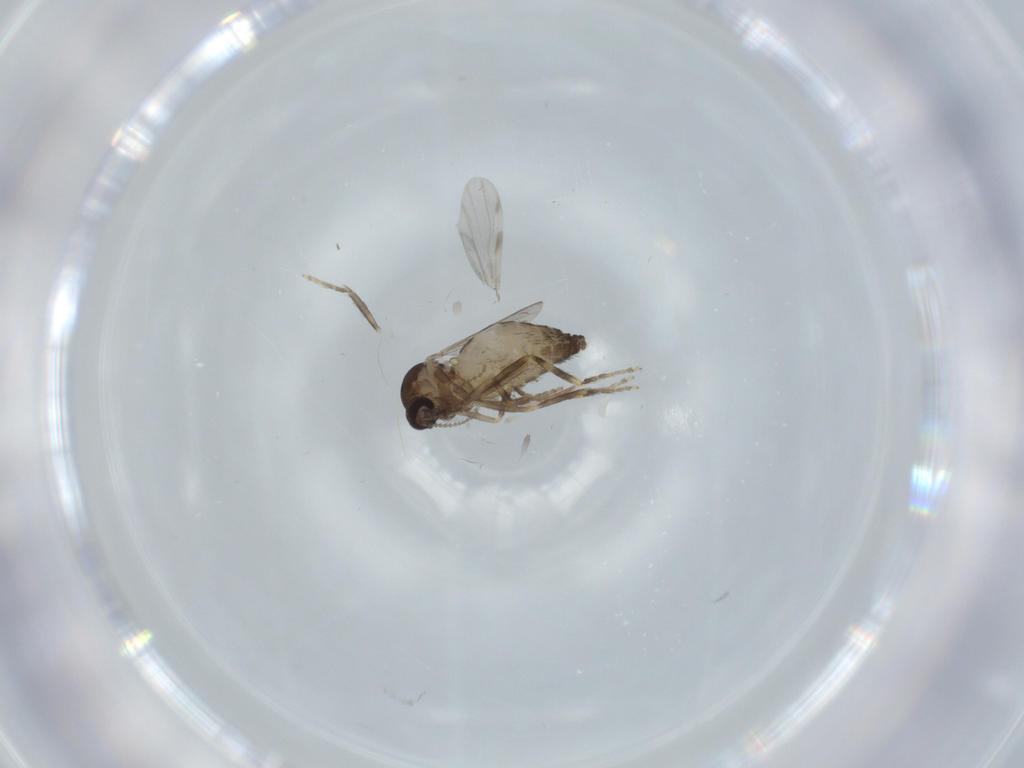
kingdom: Animalia
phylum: Arthropoda
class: Insecta
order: Diptera
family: Ceratopogonidae
